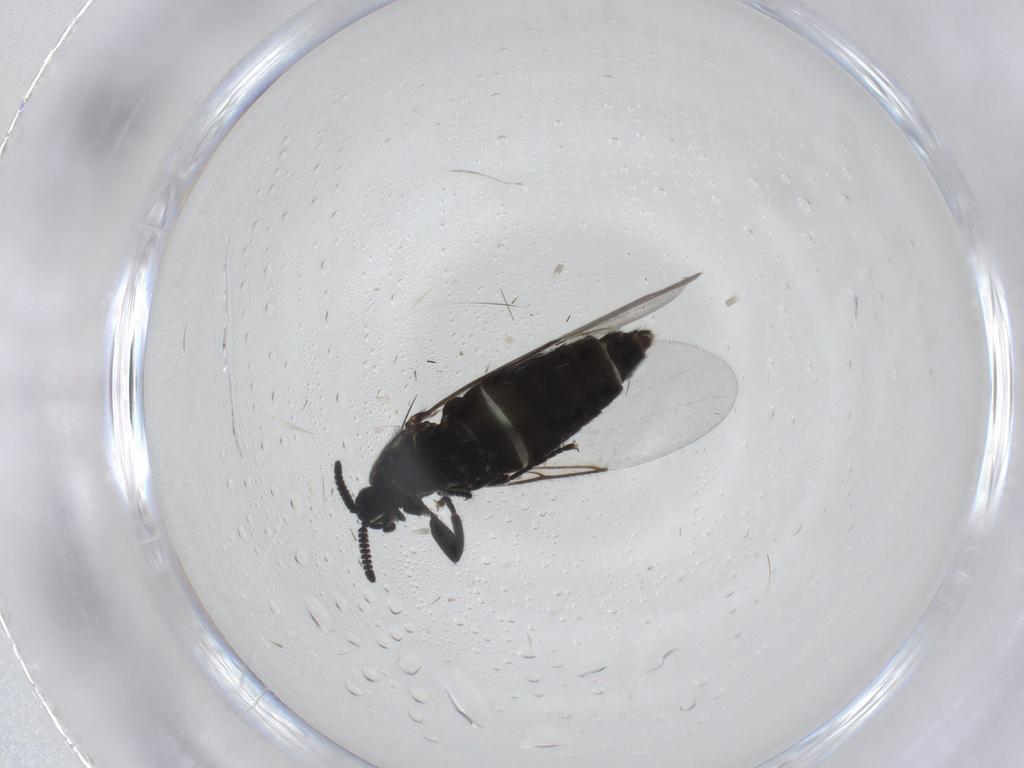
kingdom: Animalia
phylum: Arthropoda
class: Insecta
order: Diptera
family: Scatopsidae
